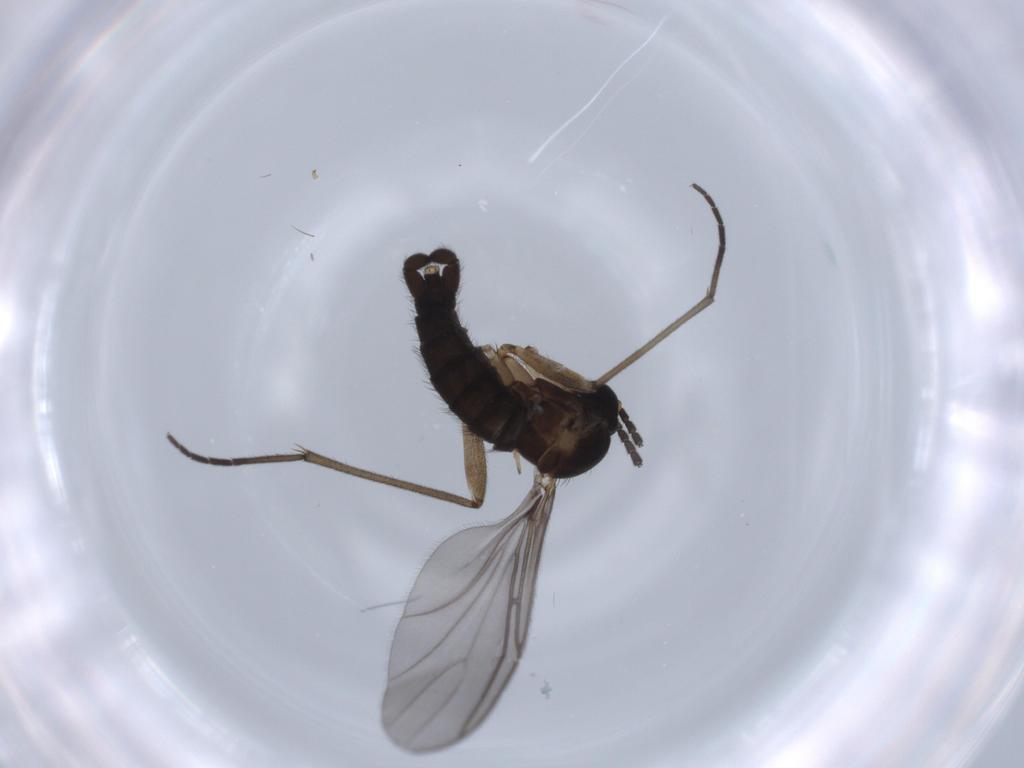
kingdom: Animalia
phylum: Arthropoda
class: Insecta
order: Diptera
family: Sciaridae
